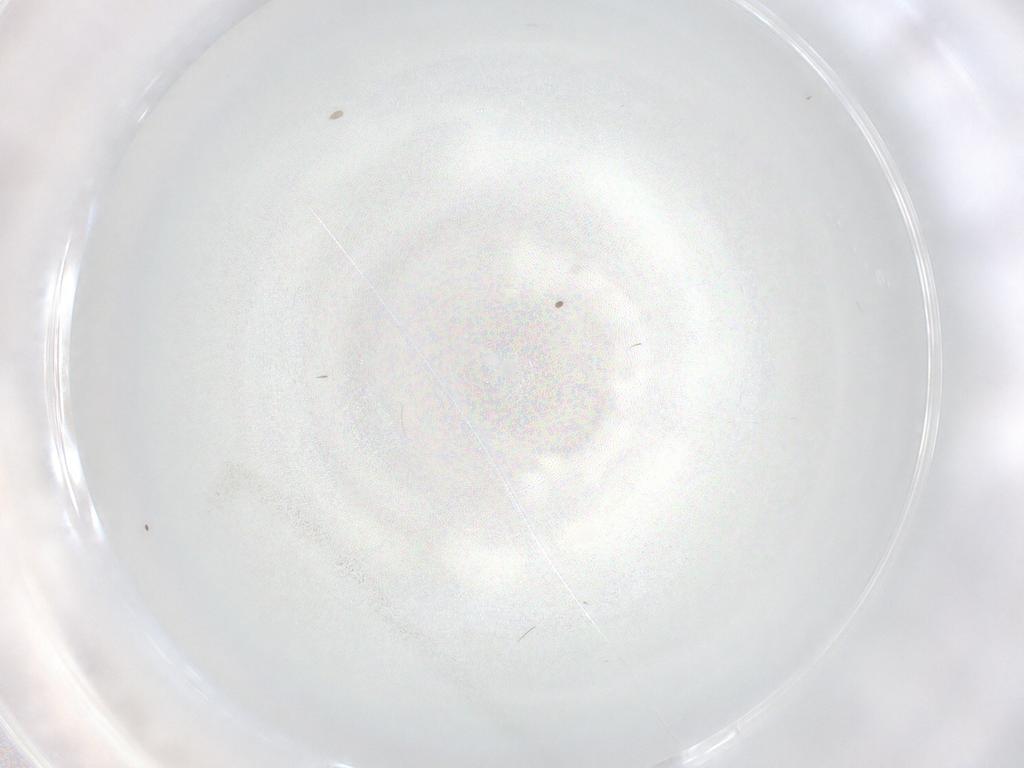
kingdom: Animalia
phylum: Arthropoda
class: Insecta
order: Diptera
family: Cecidomyiidae
